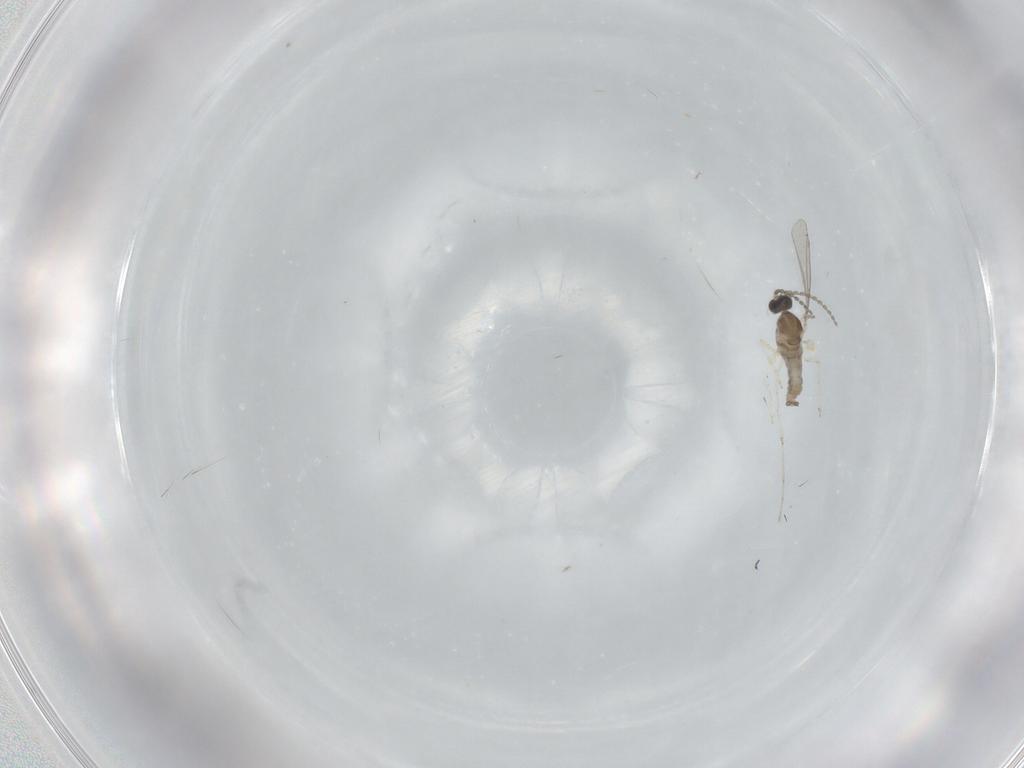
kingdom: Animalia
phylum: Arthropoda
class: Insecta
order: Diptera
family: Cecidomyiidae
